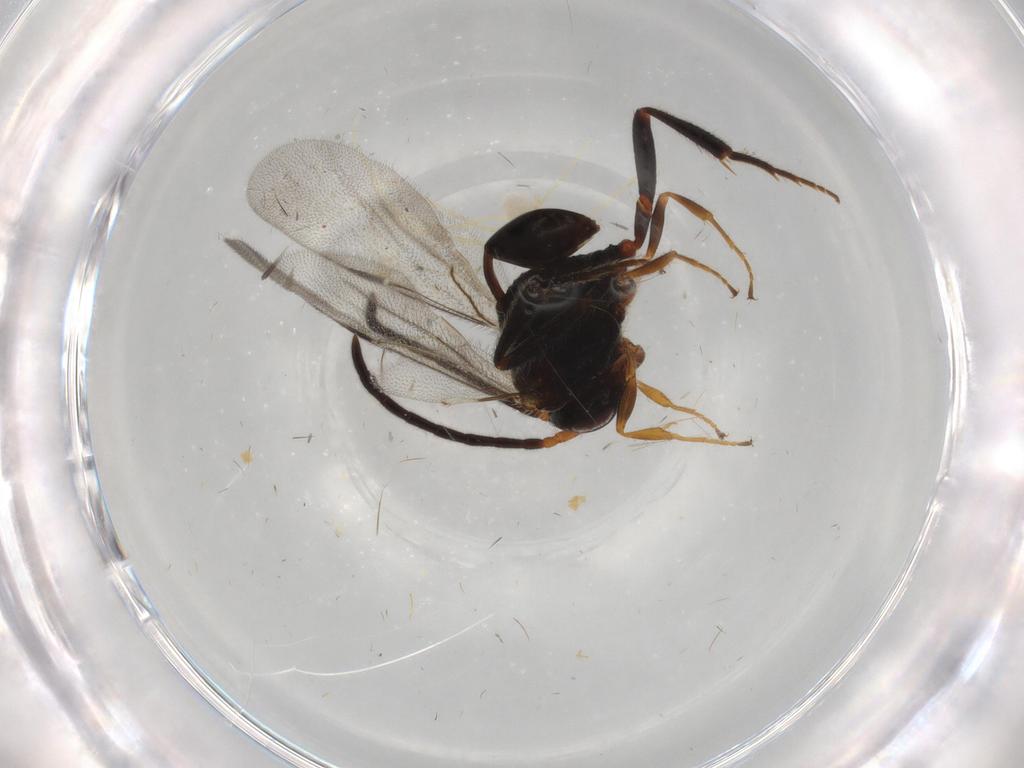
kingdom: Animalia
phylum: Arthropoda
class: Insecta
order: Hymenoptera
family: Evaniidae
